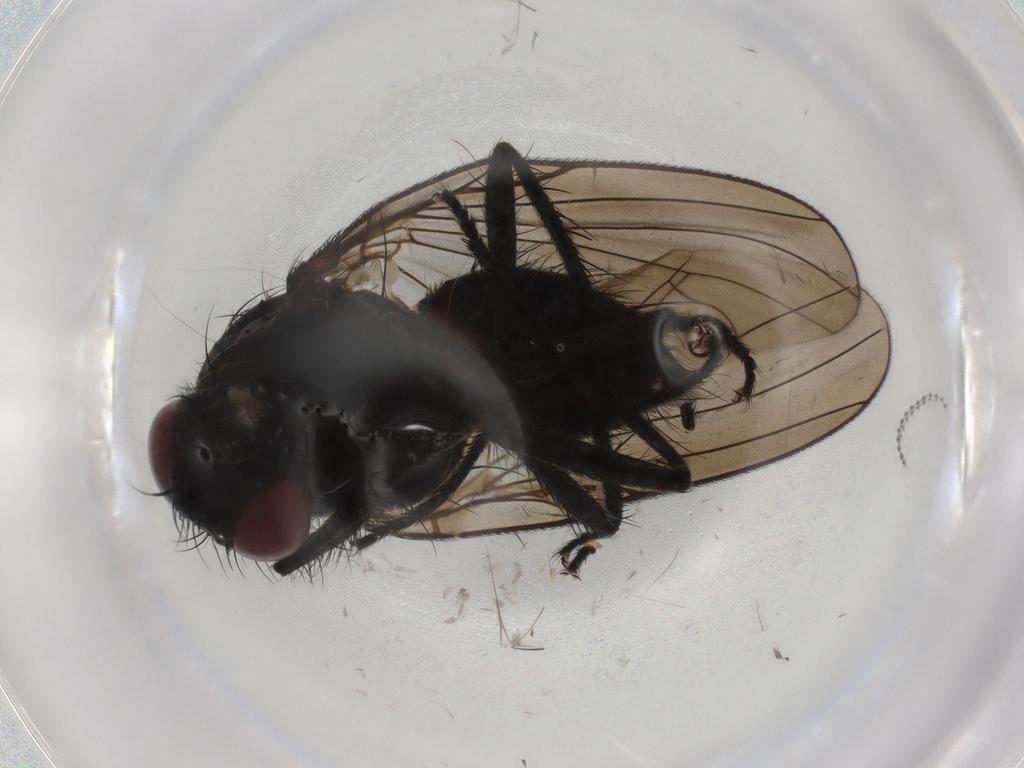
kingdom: Animalia
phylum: Arthropoda
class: Insecta
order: Diptera
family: Anthomyiidae
